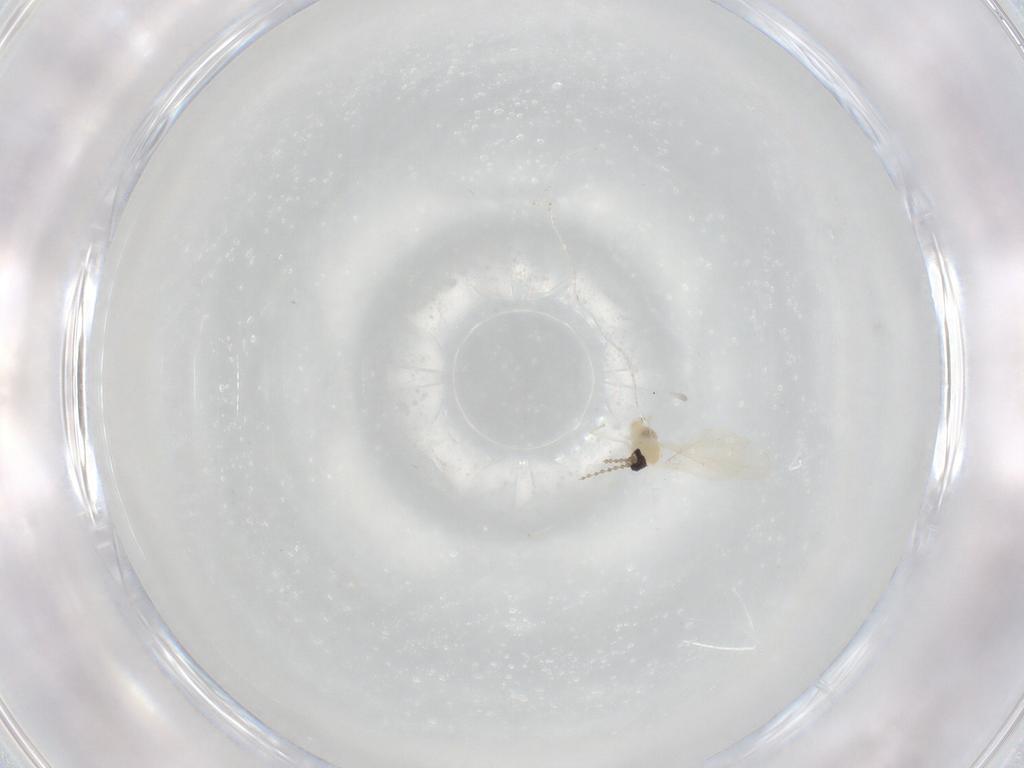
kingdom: Animalia
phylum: Arthropoda
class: Insecta
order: Diptera
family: Cecidomyiidae
